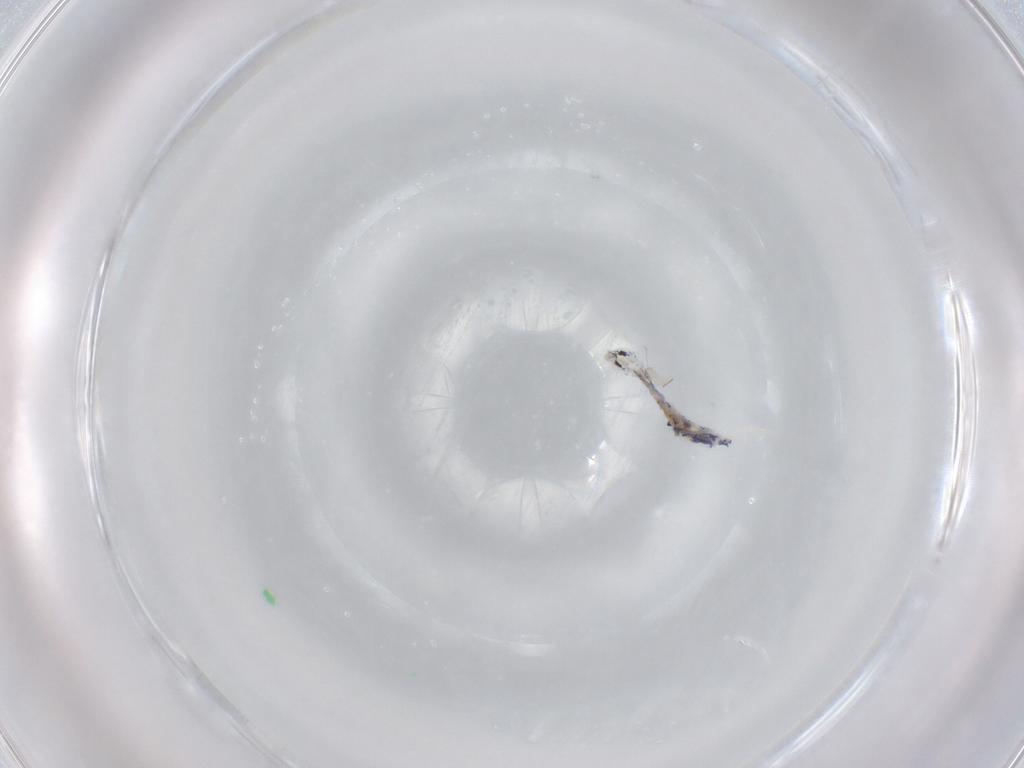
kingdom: Animalia
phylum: Arthropoda
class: Collembola
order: Entomobryomorpha
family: Entomobryidae
